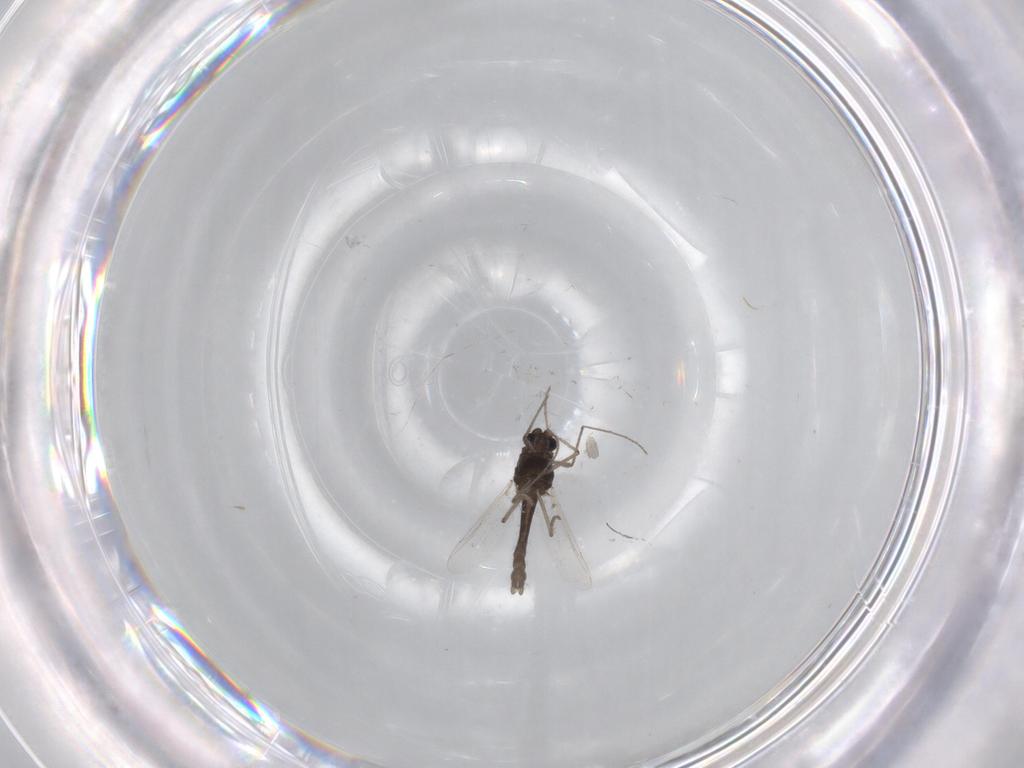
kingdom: Animalia
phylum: Arthropoda
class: Insecta
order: Diptera
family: Chironomidae
